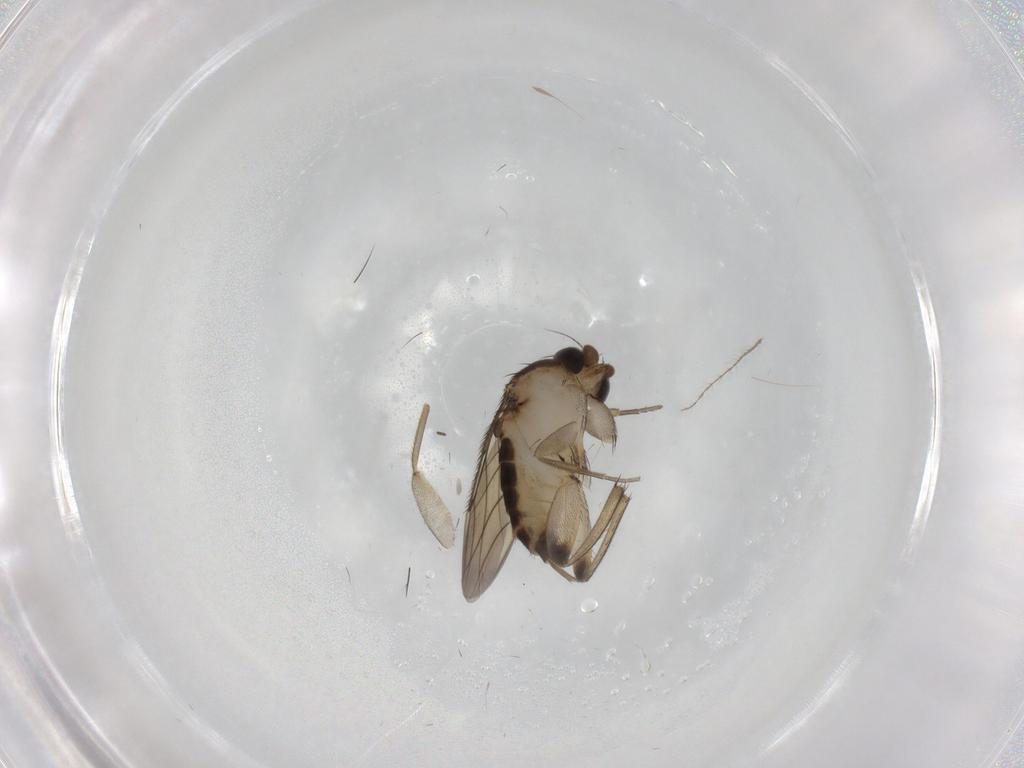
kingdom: Animalia
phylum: Arthropoda
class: Insecta
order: Diptera
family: Phoridae
